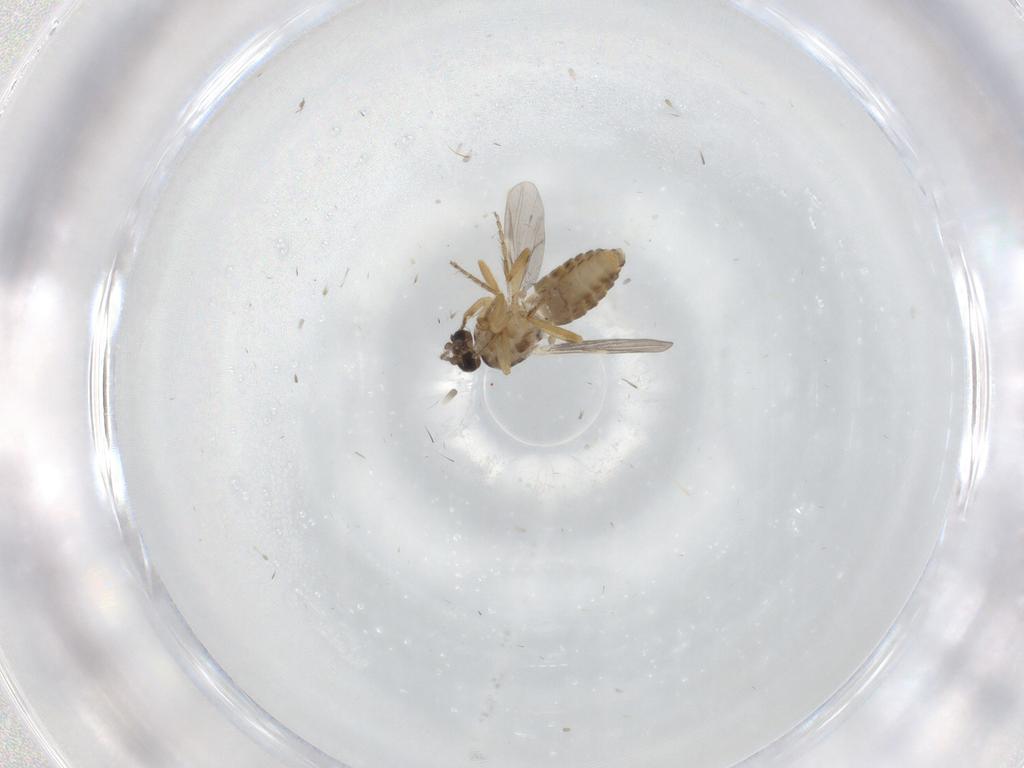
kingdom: Animalia
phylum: Arthropoda
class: Insecta
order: Diptera
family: Ceratopogonidae
